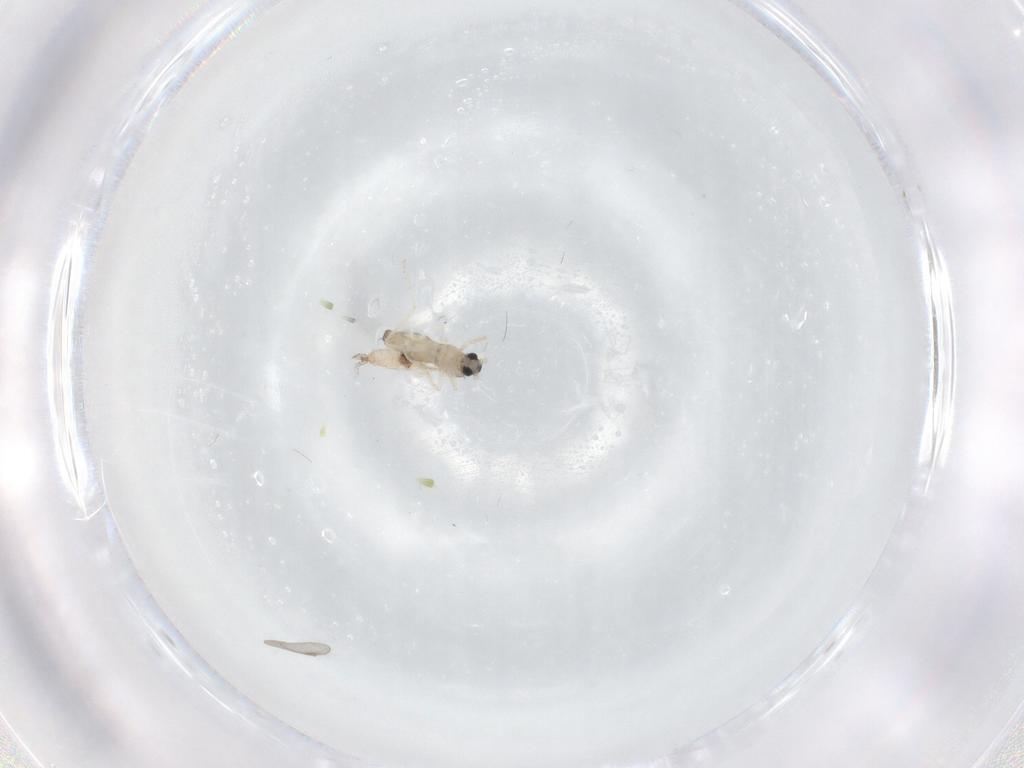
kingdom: Animalia
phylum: Arthropoda
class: Insecta
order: Diptera
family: Cecidomyiidae
